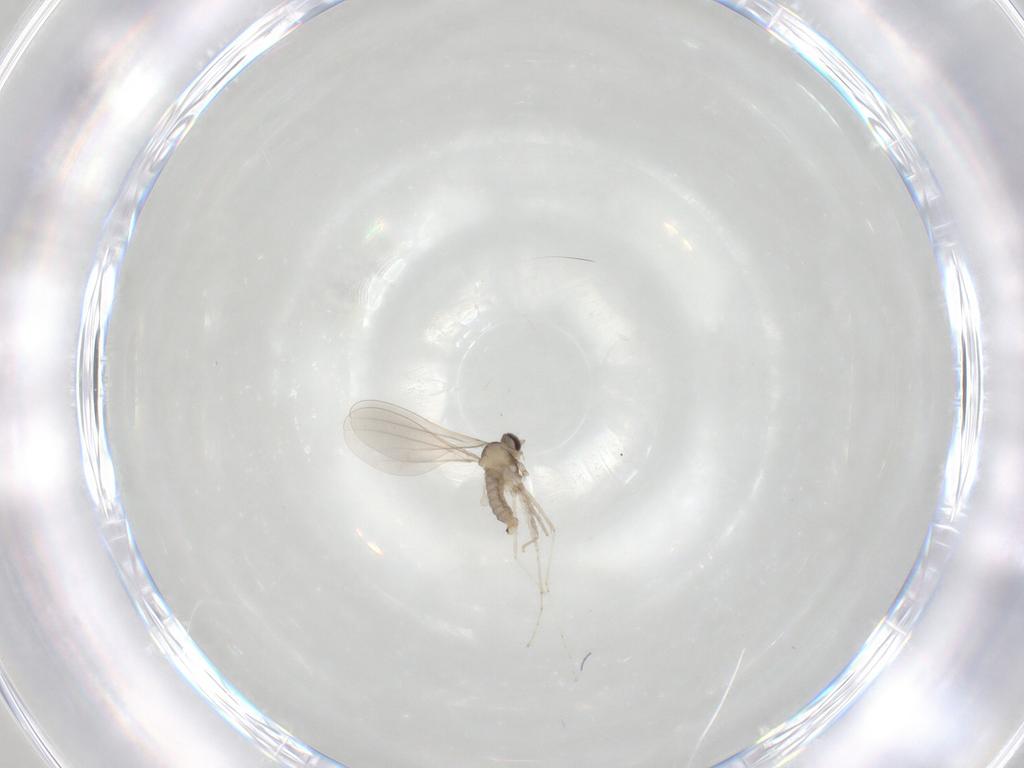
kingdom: Animalia
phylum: Arthropoda
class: Insecta
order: Diptera
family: Cecidomyiidae
